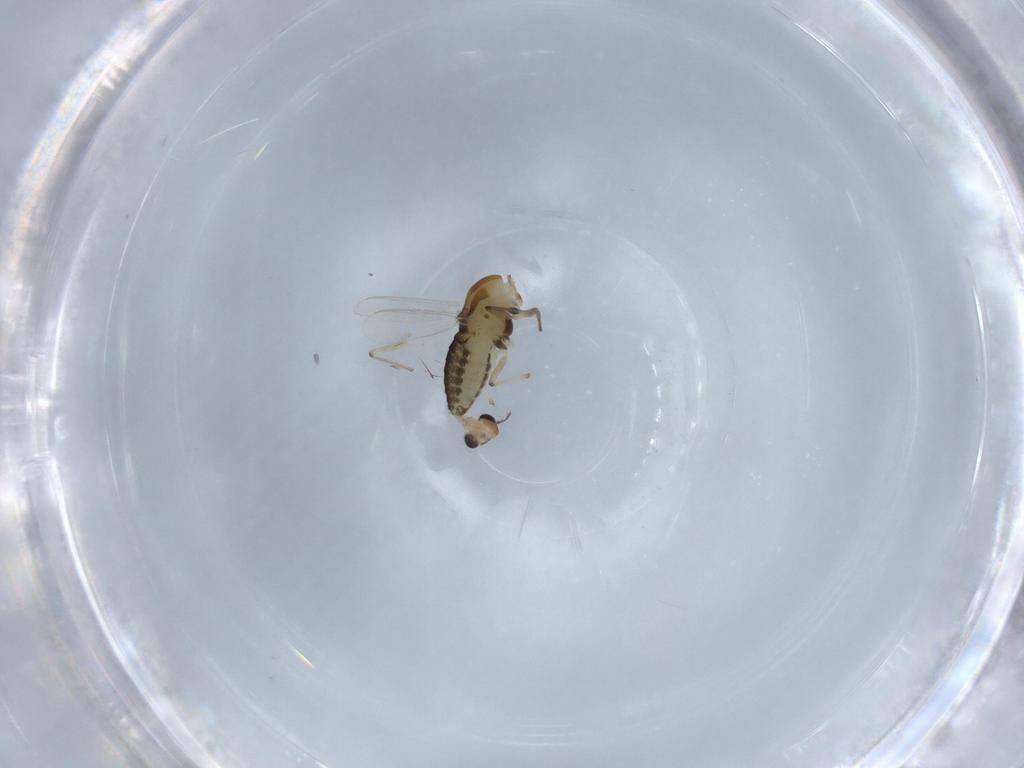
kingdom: Animalia
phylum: Arthropoda
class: Insecta
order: Diptera
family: Chironomidae
